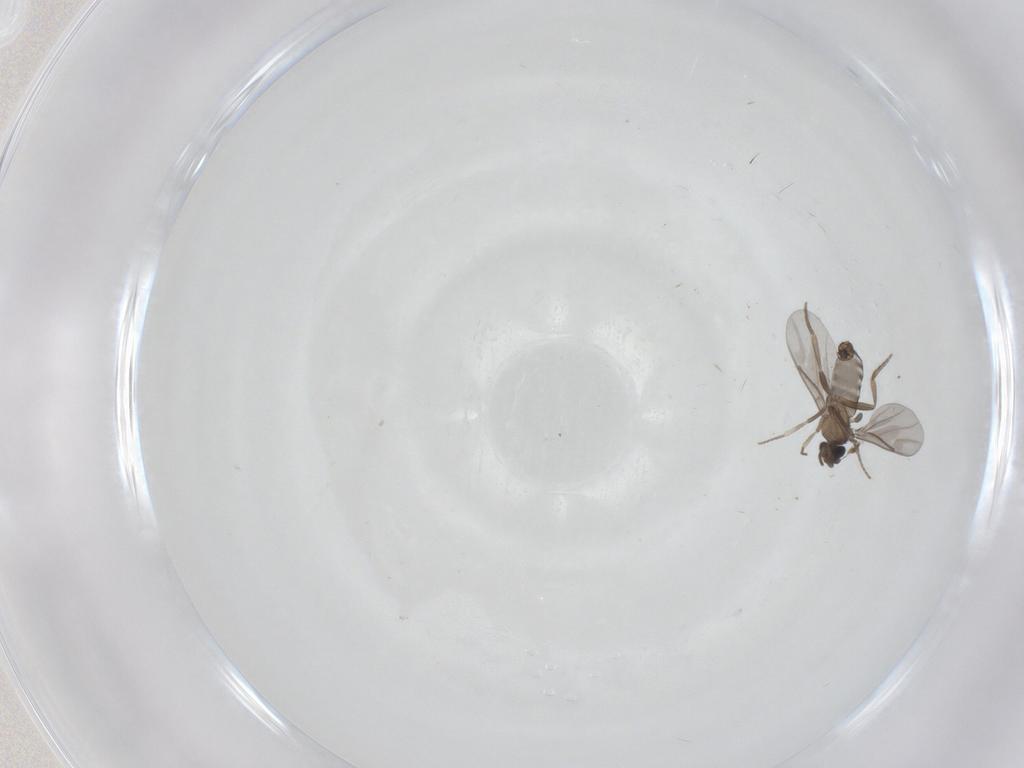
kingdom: Animalia
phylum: Arthropoda
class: Insecta
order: Diptera
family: Phoridae
